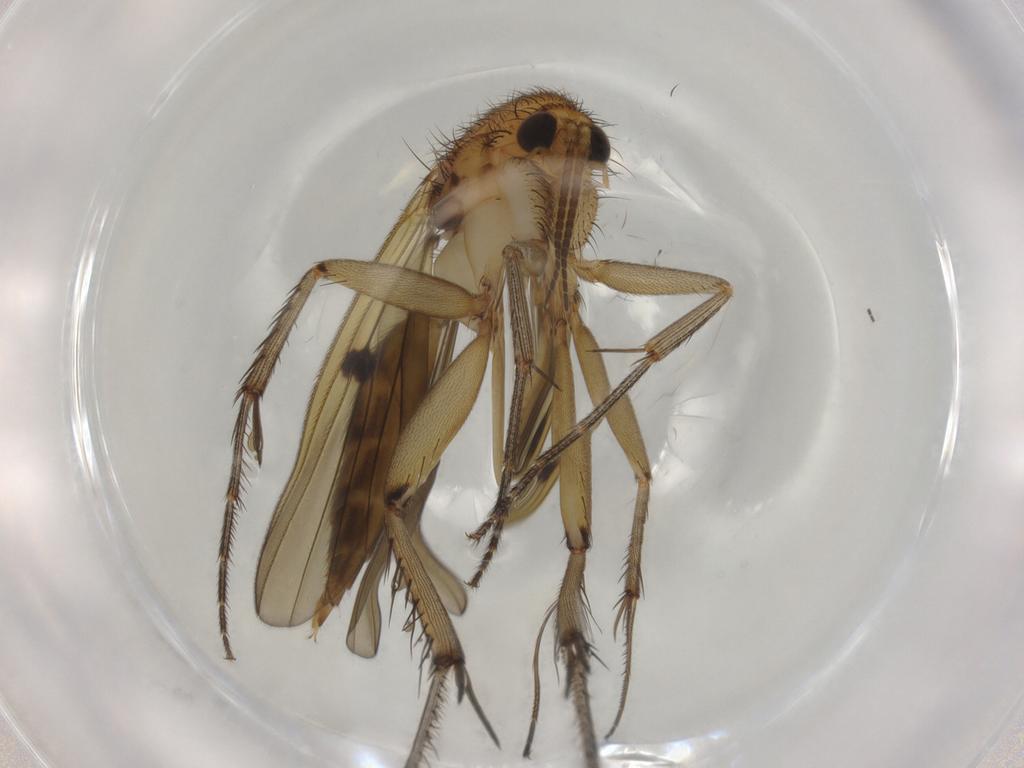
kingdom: Animalia
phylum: Arthropoda
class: Insecta
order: Diptera
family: Mycetophilidae
